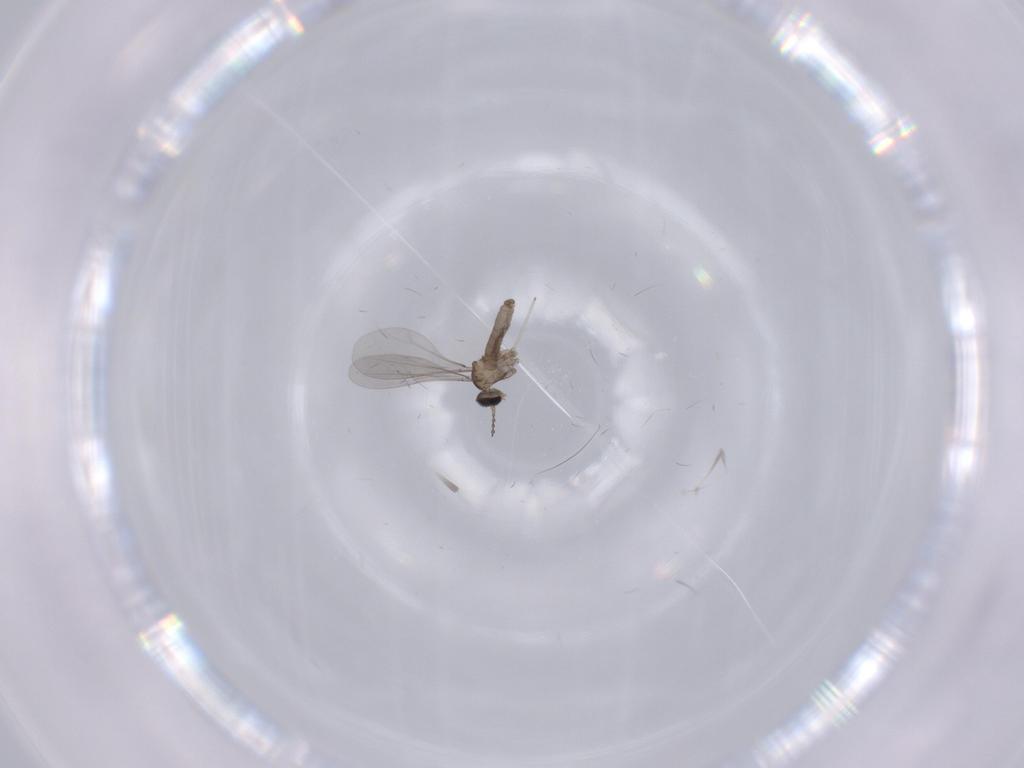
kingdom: Animalia
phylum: Arthropoda
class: Insecta
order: Diptera
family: Cecidomyiidae
